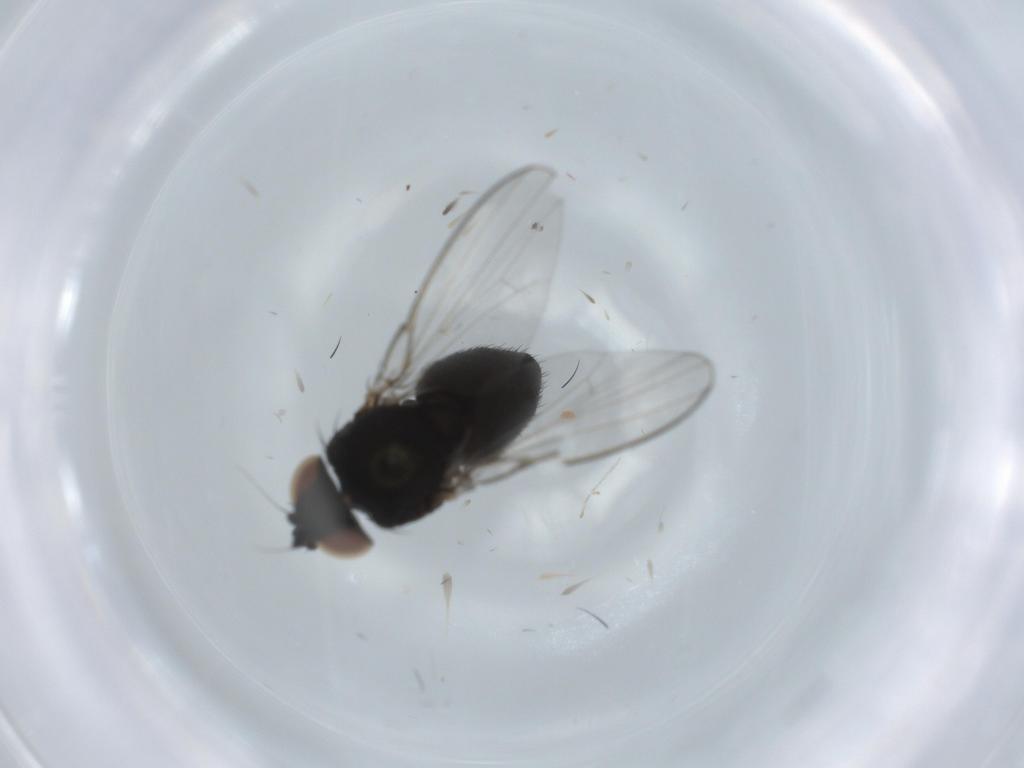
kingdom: Animalia
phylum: Arthropoda
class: Insecta
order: Diptera
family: Milichiidae
